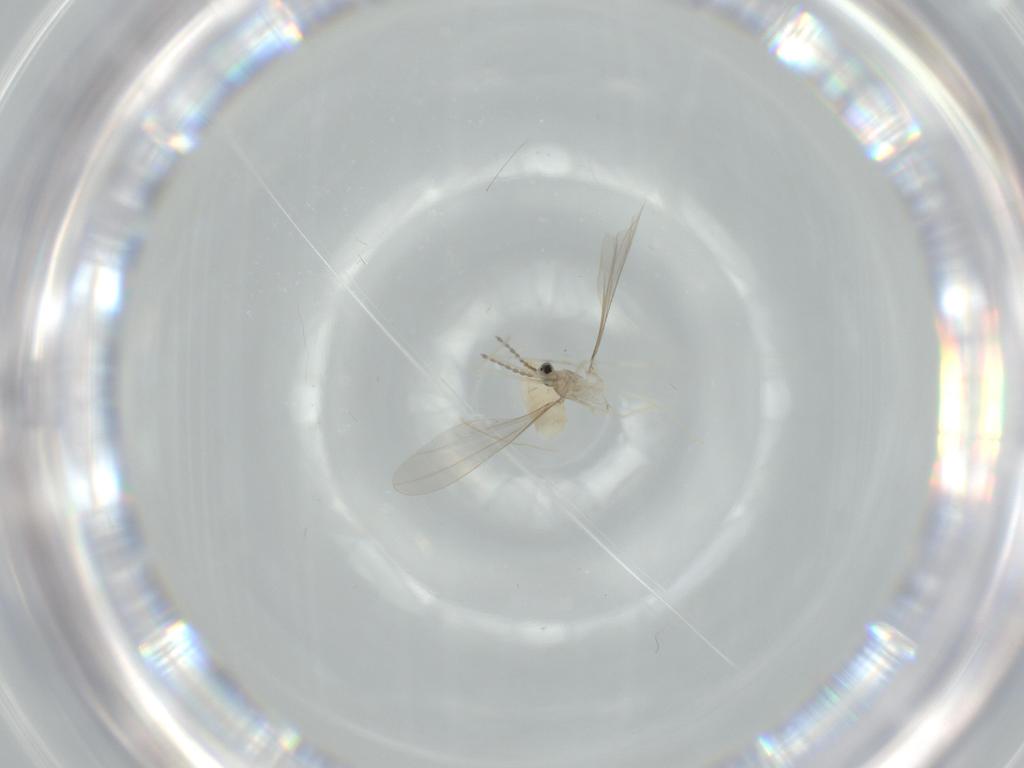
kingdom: Animalia
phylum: Arthropoda
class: Insecta
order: Diptera
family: Cecidomyiidae
